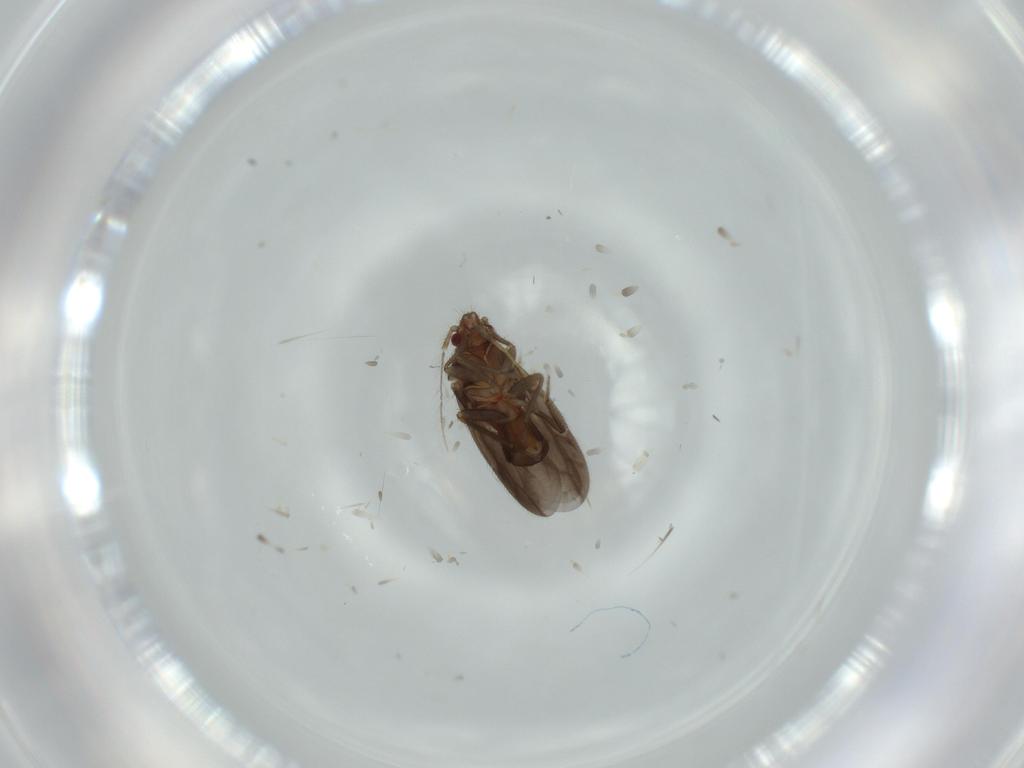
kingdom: Animalia
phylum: Arthropoda
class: Insecta
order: Hemiptera
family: Ceratocombidae
